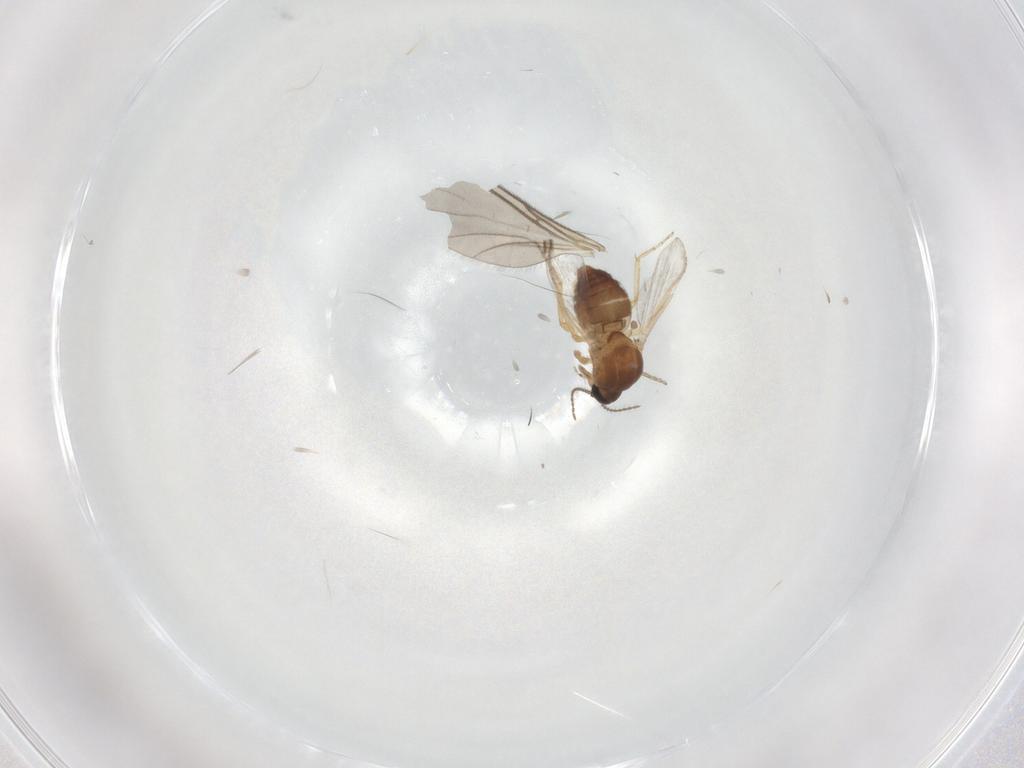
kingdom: Animalia
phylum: Arthropoda
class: Insecta
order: Diptera
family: Ceratopogonidae
